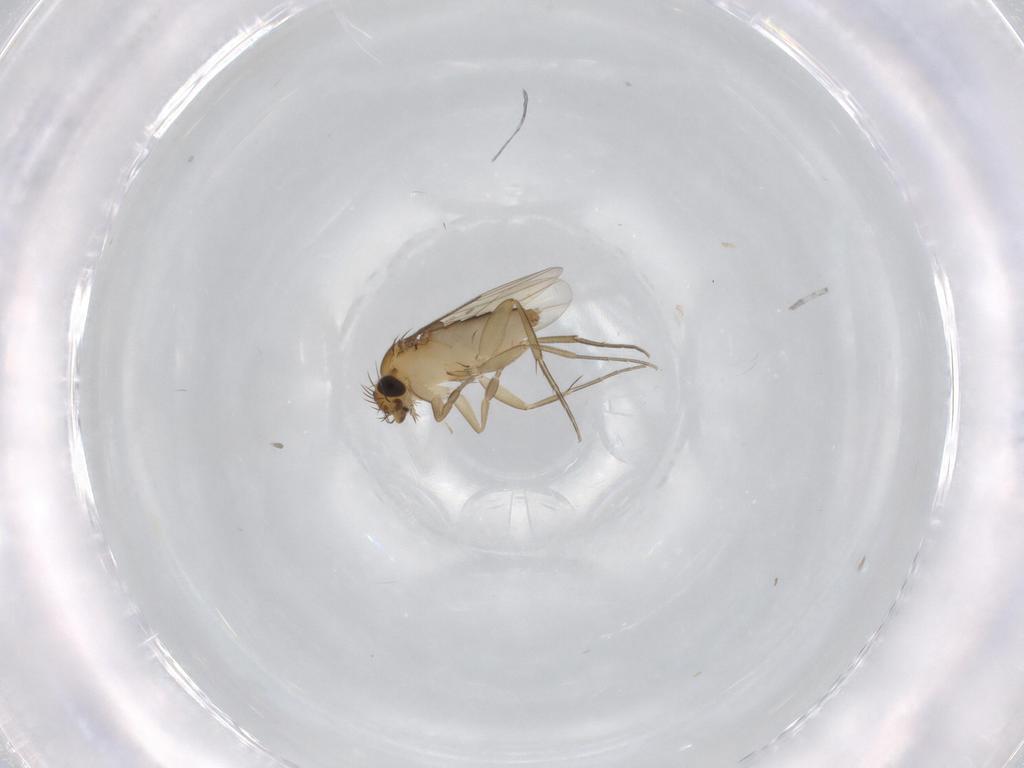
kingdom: Animalia
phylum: Arthropoda
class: Insecta
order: Diptera
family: Phoridae
